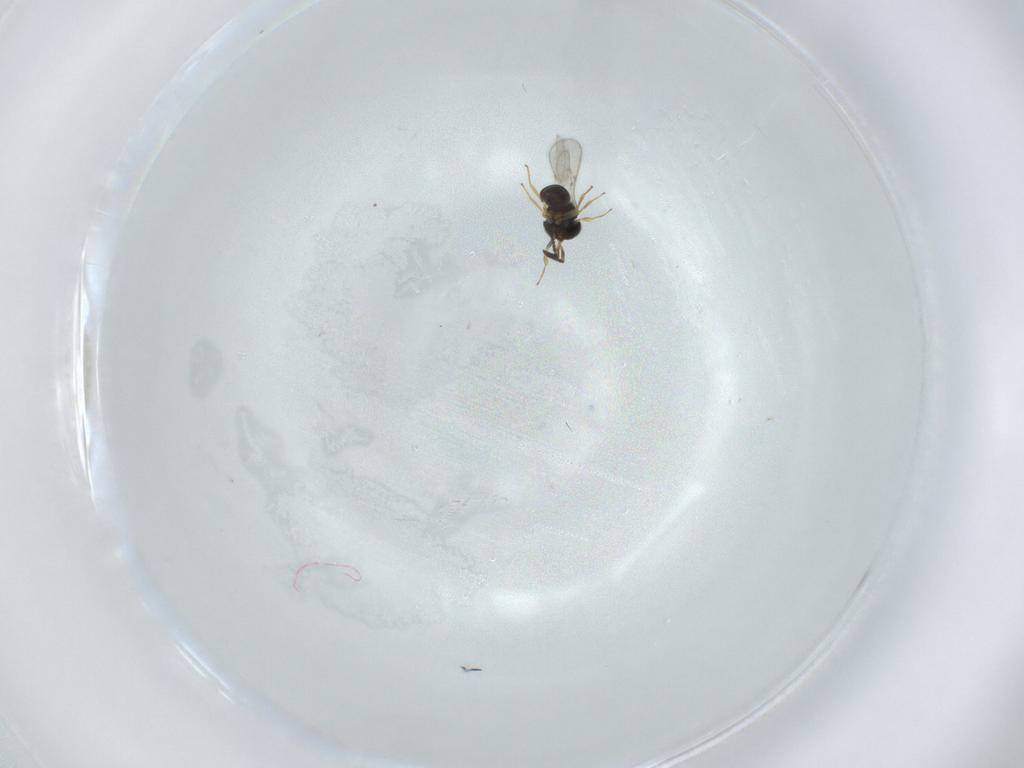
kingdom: Animalia
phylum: Arthropoda
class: Insecta
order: Hymenoptera
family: Scelionidae
